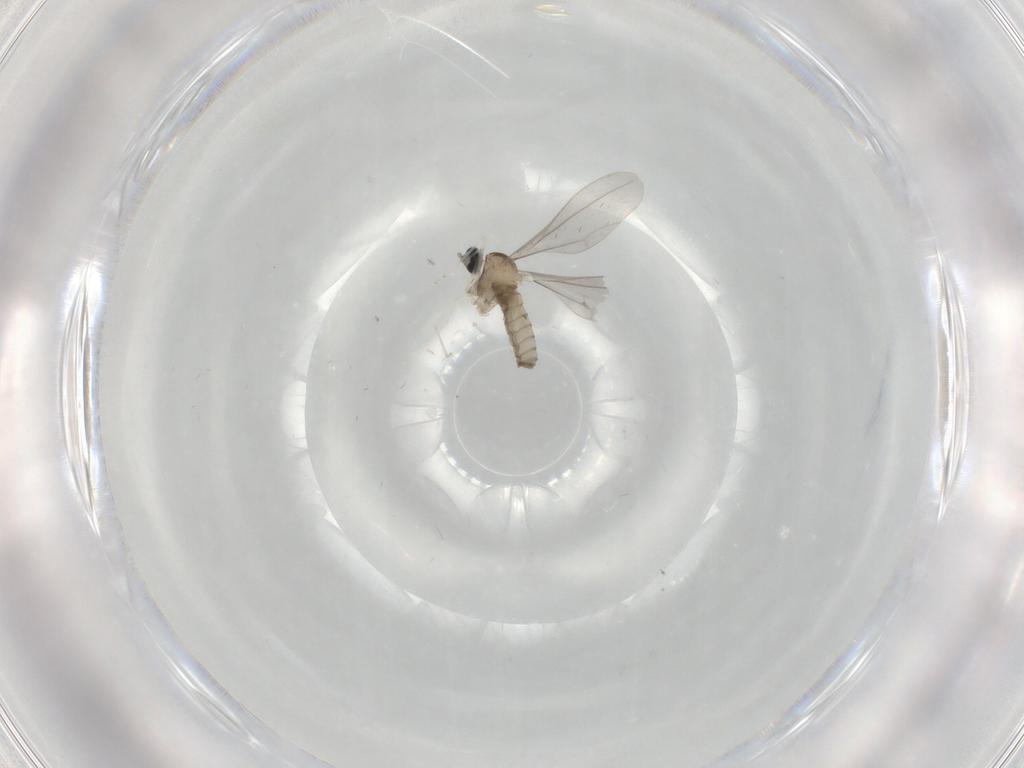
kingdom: Animalia
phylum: Arthropoda
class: Insecta
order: Diptera
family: Cecidomyiidae
